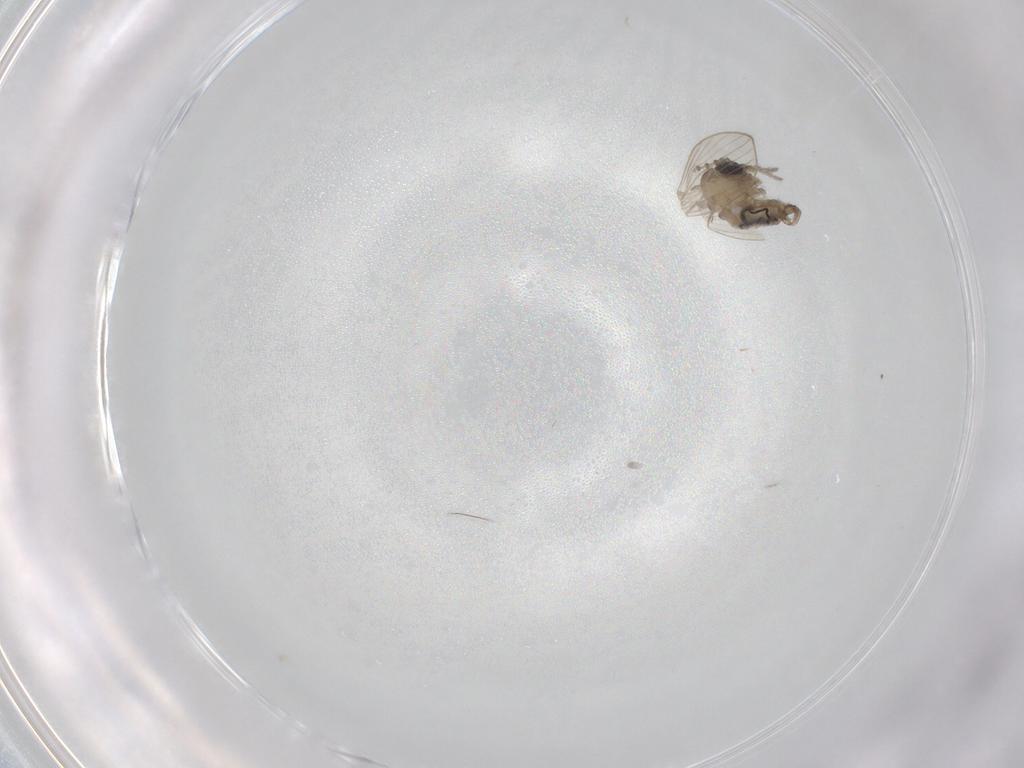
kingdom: Animalia
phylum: Arthropoda
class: Insecta
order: Diptera
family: Psychodidae
